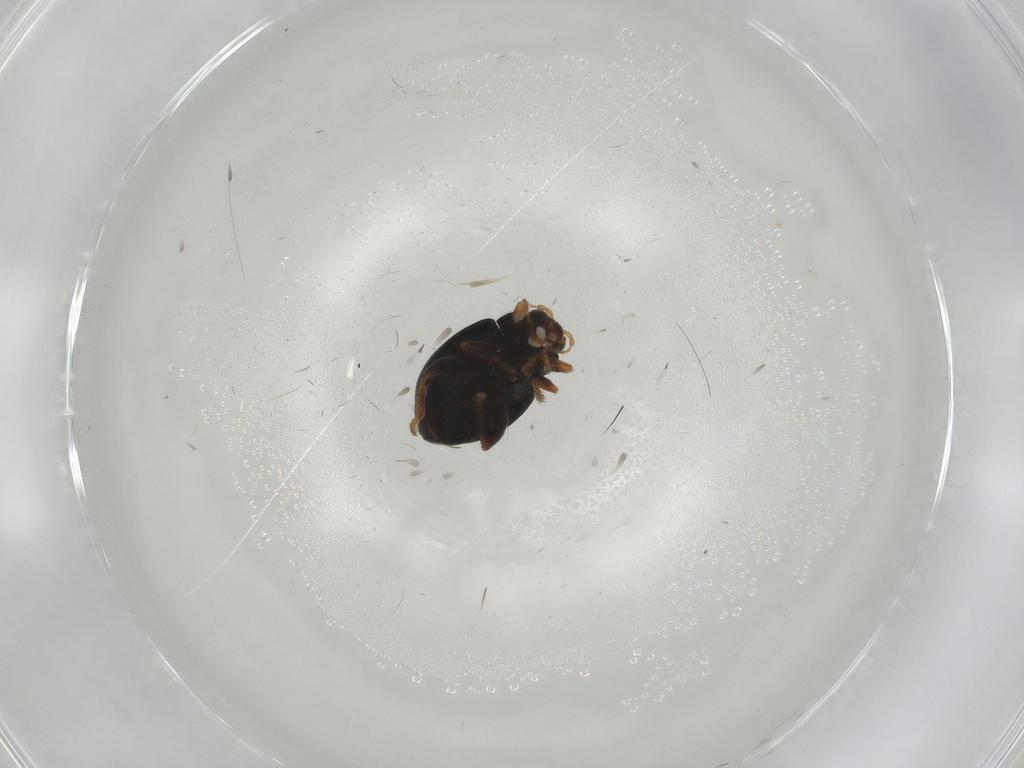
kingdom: Animalia
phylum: Arthropoda
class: Insecta
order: Coleoptera
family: Chrysomelidae
